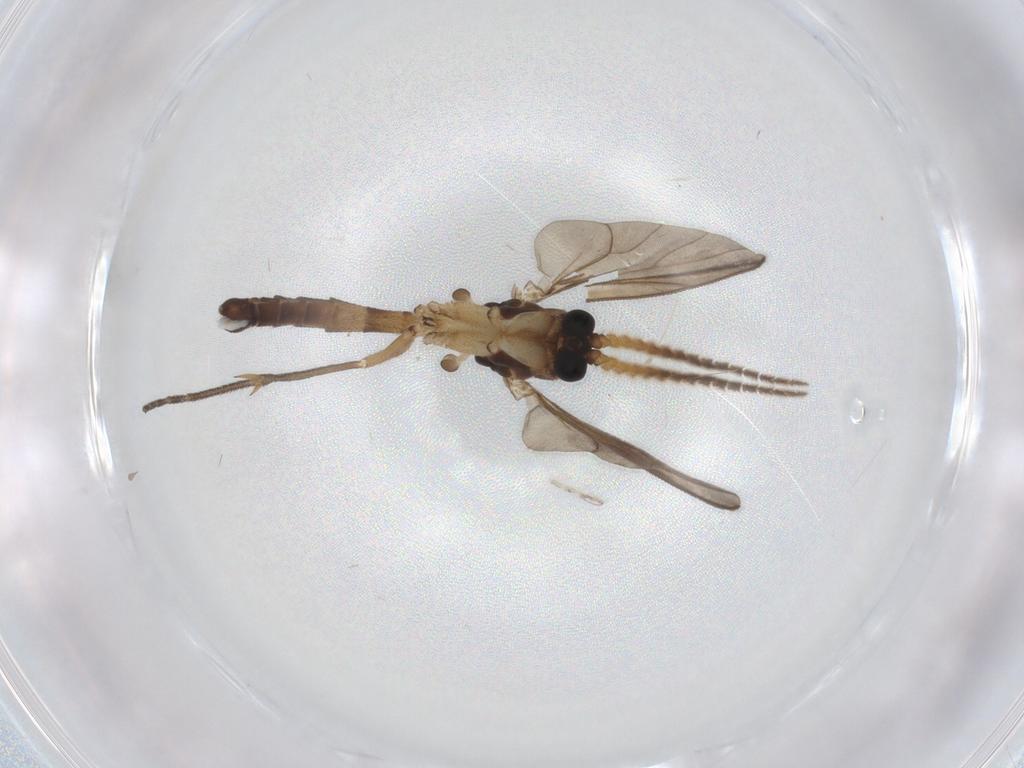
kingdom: Animalia
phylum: Arthropoda
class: Insecta
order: Diptera
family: Mycetophilidae
